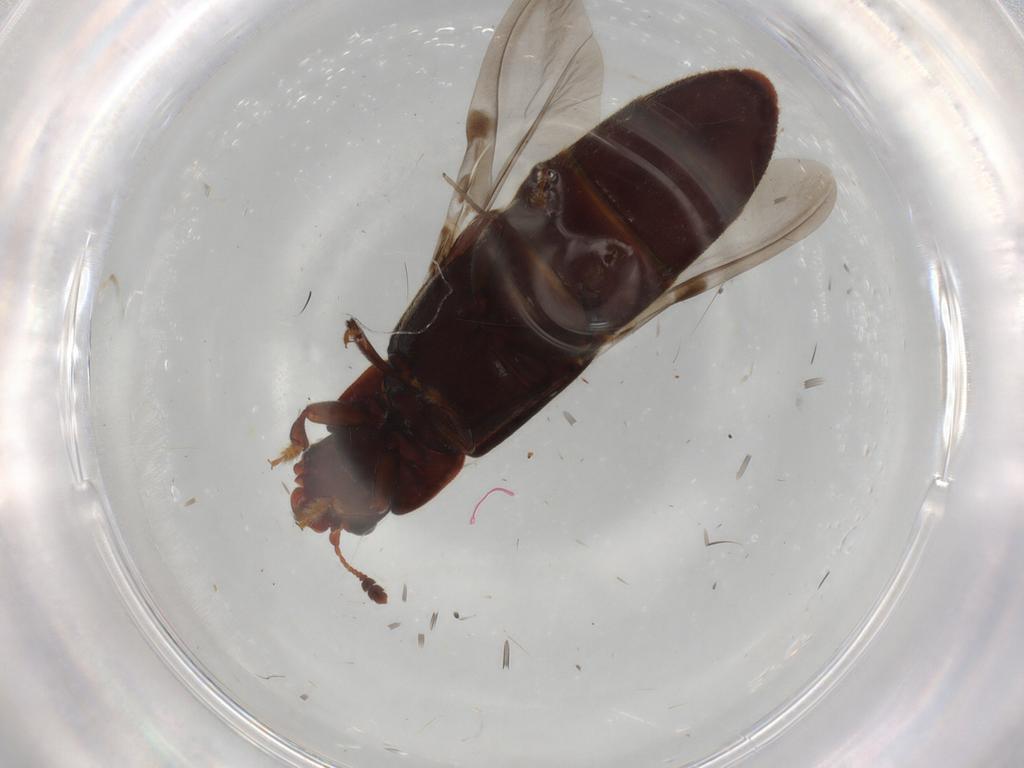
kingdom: Animalia
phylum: Arthropoda
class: Insecta
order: Coleoptera
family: Nitidulidae
